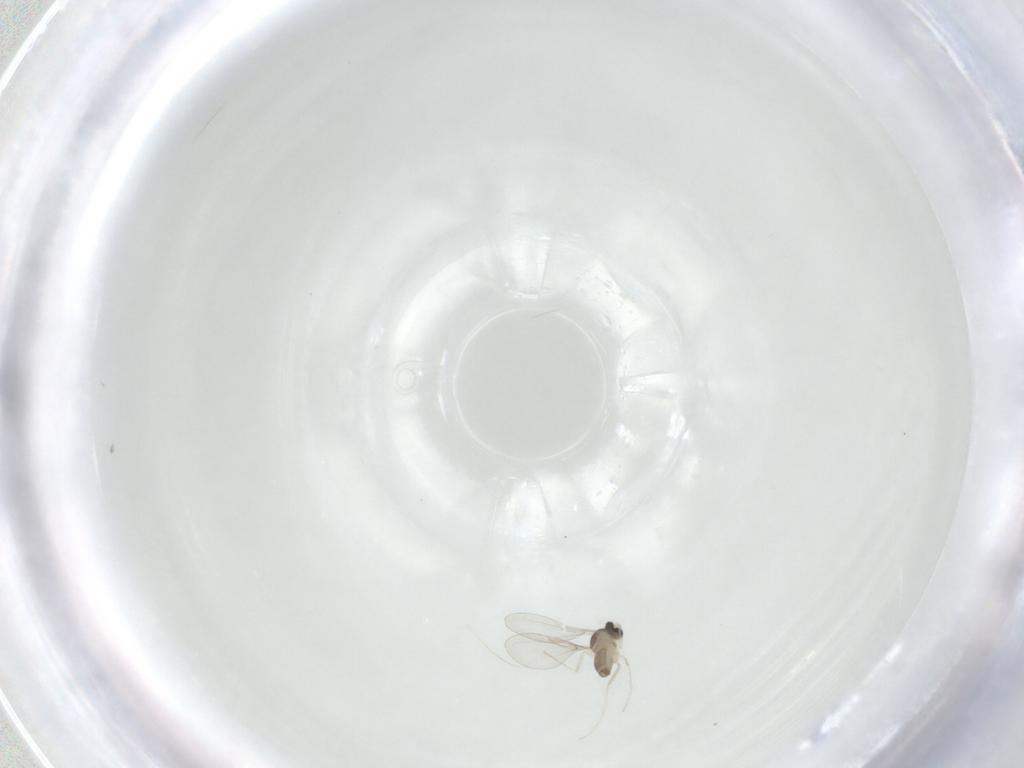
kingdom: Animalia
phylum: Arthropoda
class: Insecta
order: Diptera
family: Cecidomyiidae
